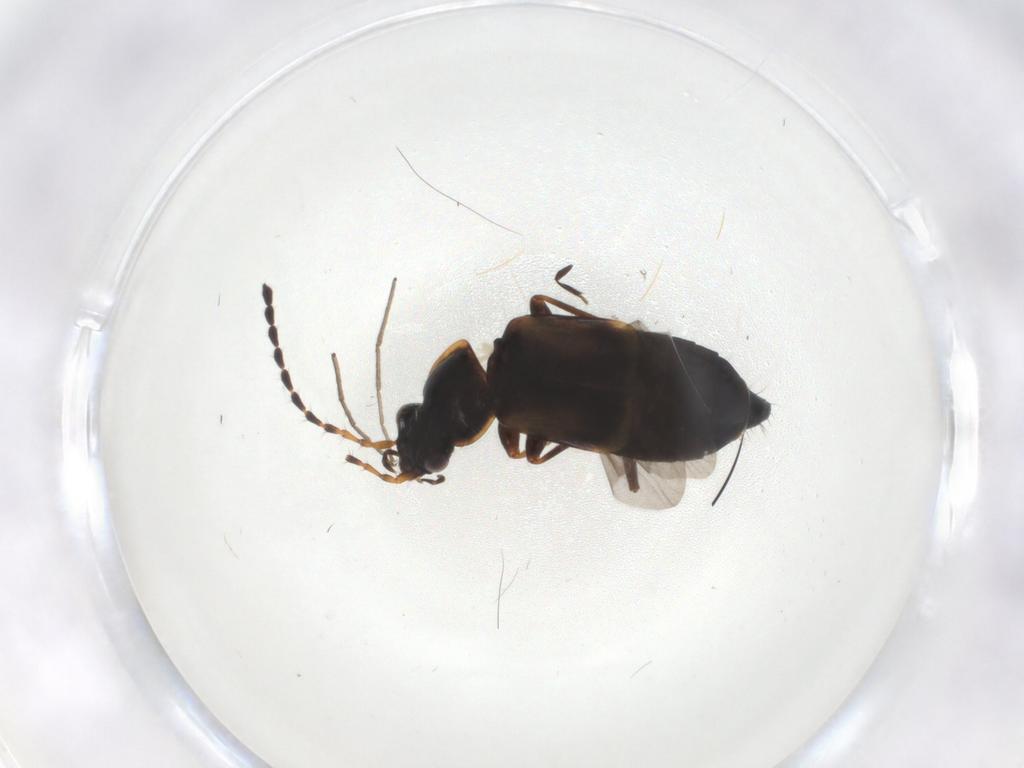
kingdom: Animalia
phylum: Arthropoda
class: Insecta
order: Coleoptera
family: Staphylinidae
